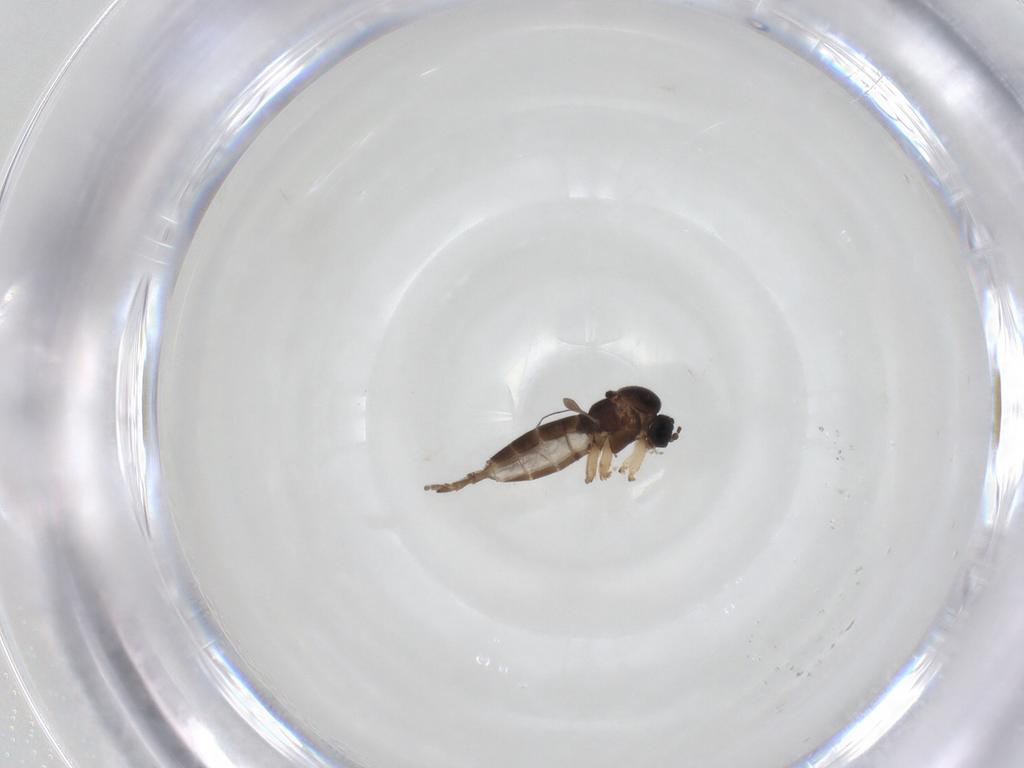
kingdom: Animalia
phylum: Arthropoda
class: Insecta
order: Diptera
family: Sciaridae
